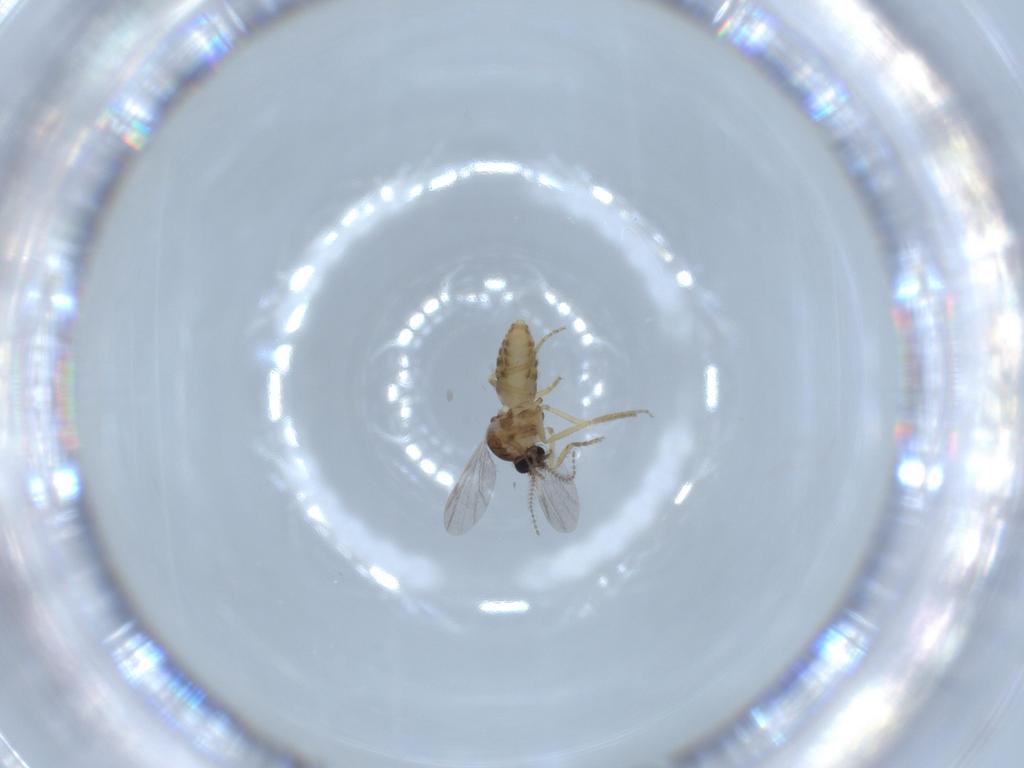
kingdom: Animalia
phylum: Arthropoda
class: Insecta
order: Diptera
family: Ceratopogonidae
